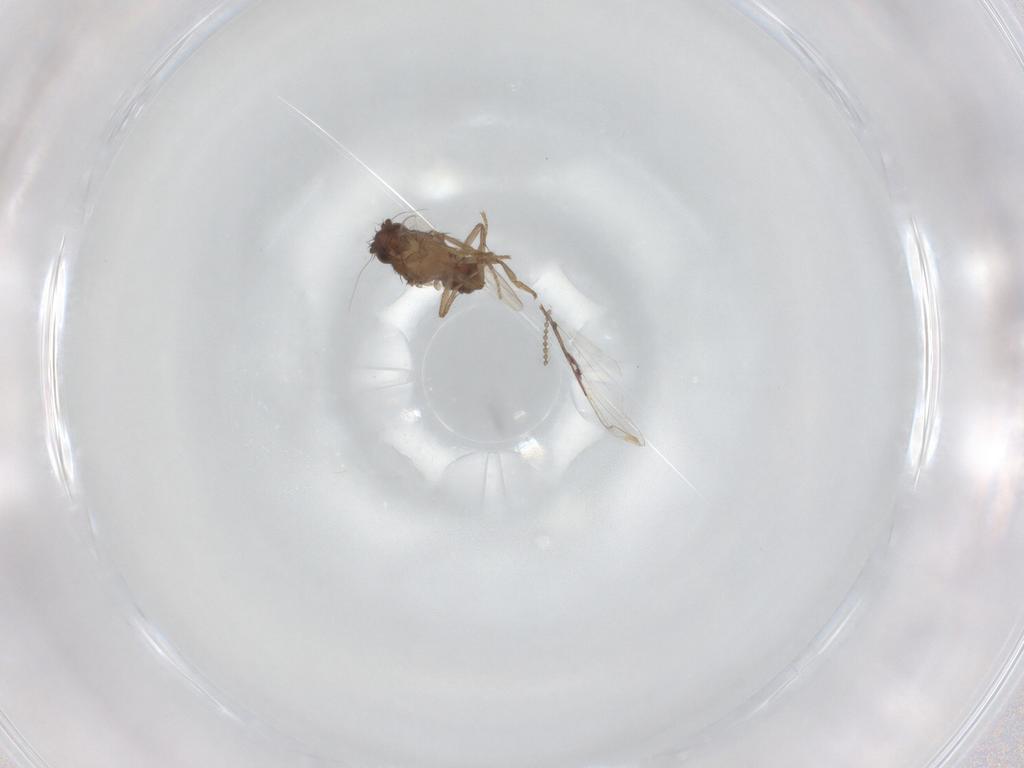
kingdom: Animalia
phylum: Arthropoda
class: Insecta
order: Diptera
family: Sphaeroceridae
